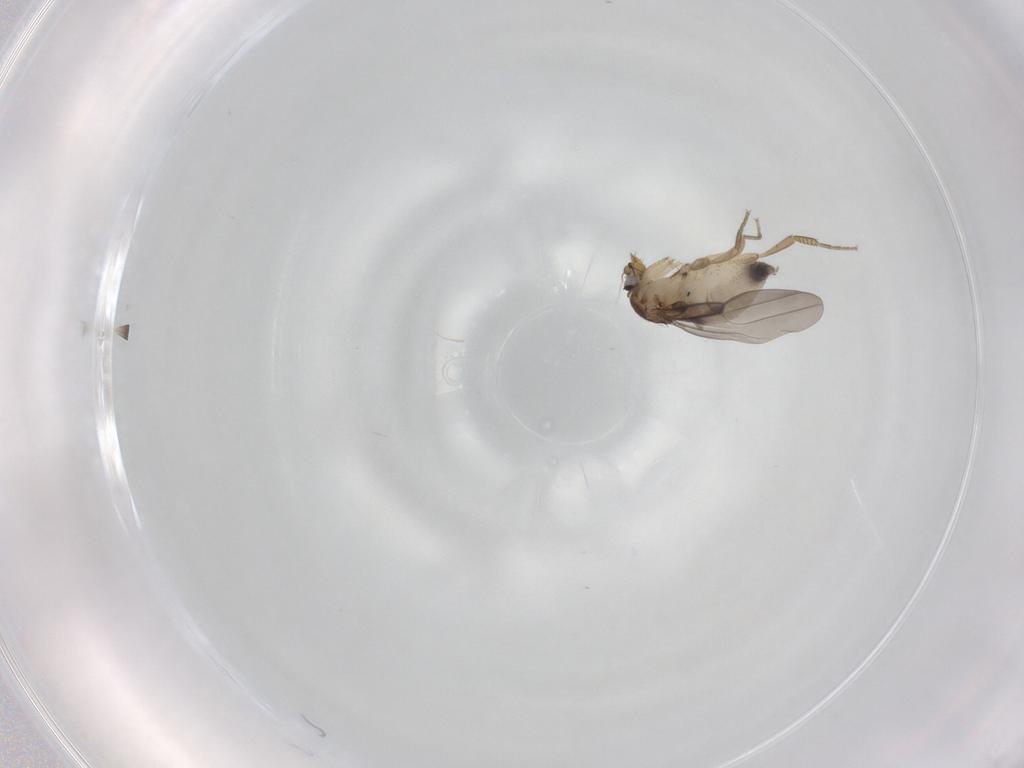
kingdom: Animalia
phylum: Arthropoda
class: Insecta
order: Diptera
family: Phoridae
